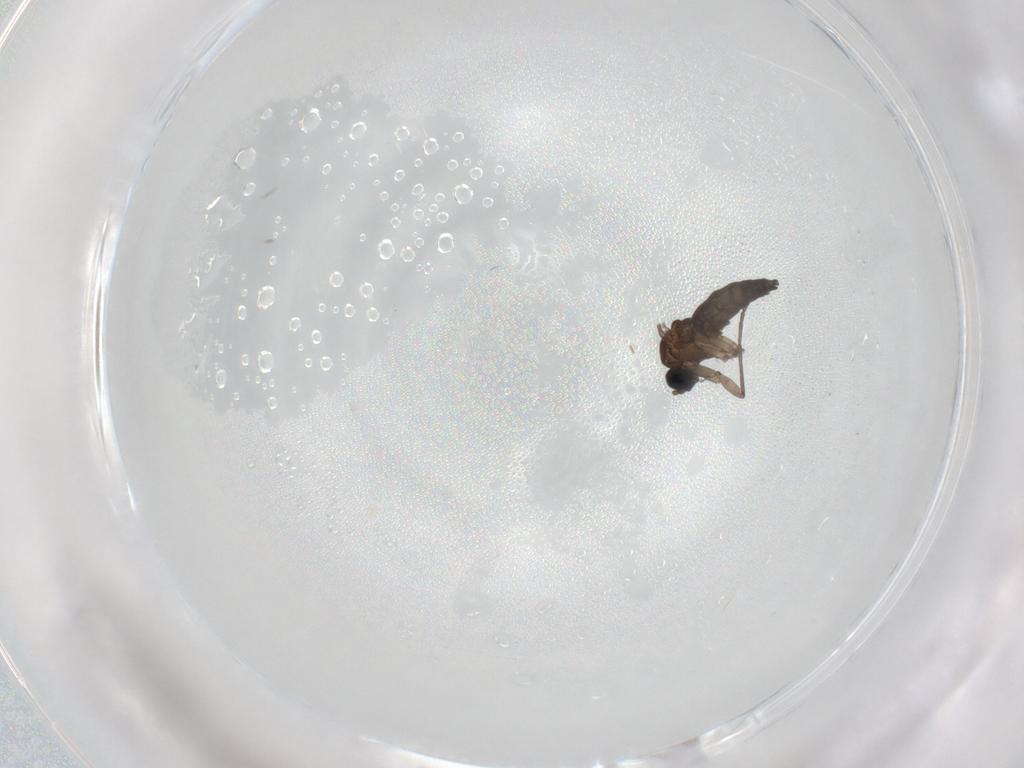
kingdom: Animalia
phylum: Arthropoda
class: Insecta
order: Diptera
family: Sciaridae
